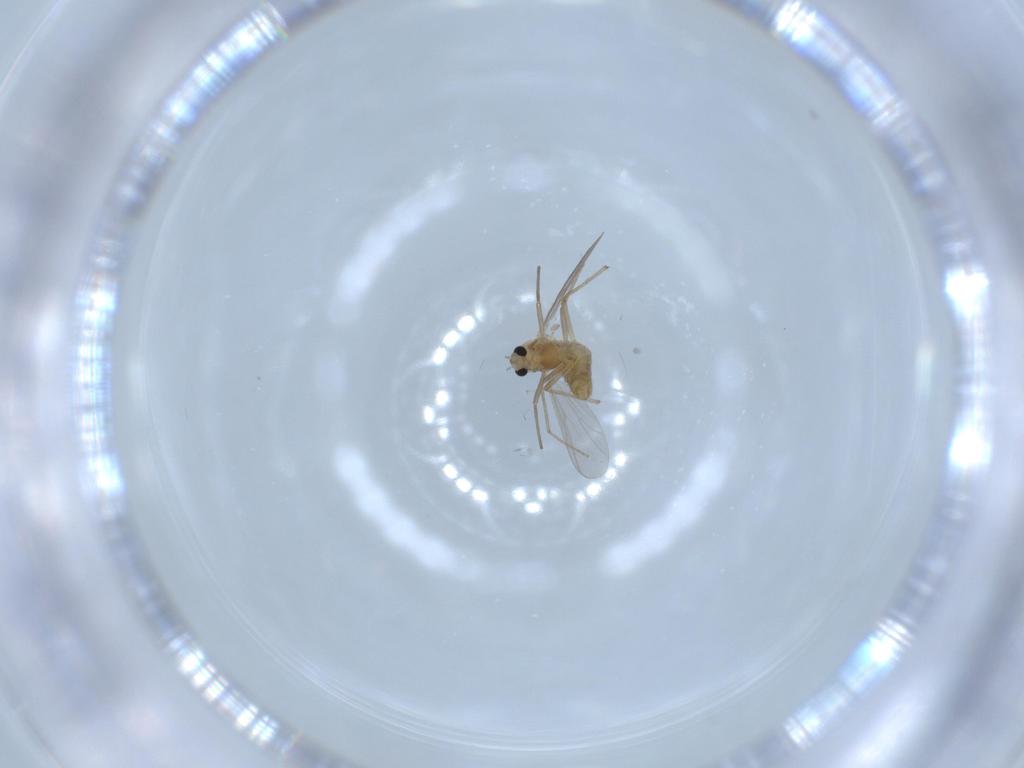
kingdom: Animalia
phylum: Arthropoda
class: Insecta
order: Diptera
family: Chironomidae
